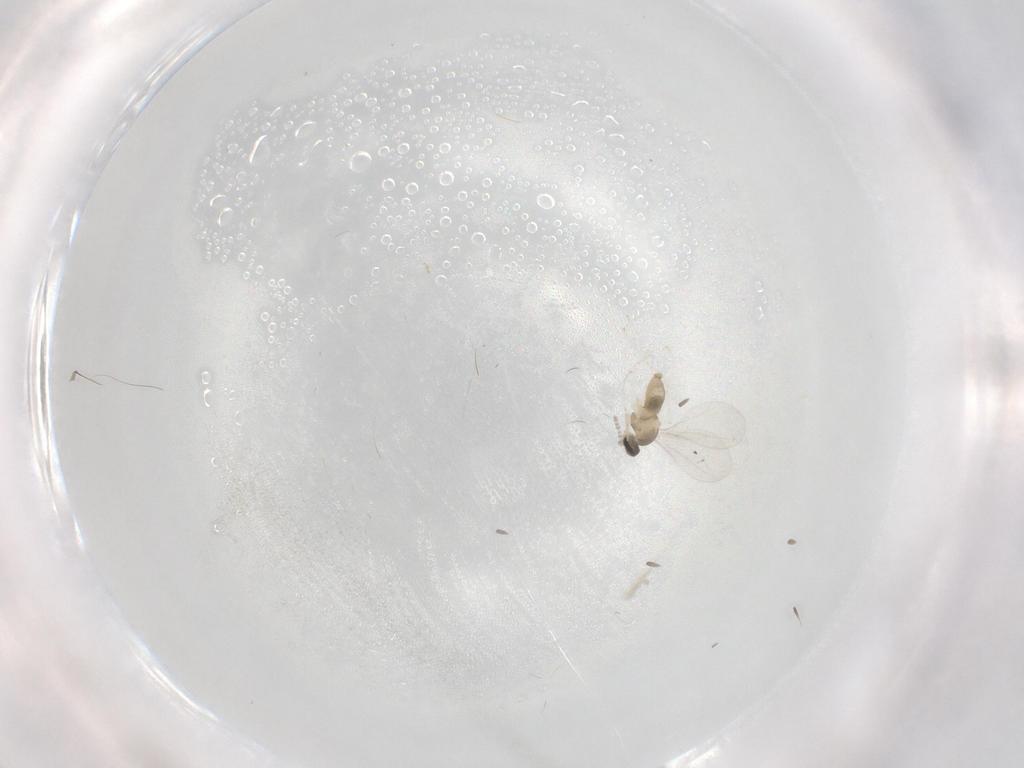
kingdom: Animalia
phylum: Arthropoda
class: Insecta
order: Diptera
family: Cecidomyiidae
